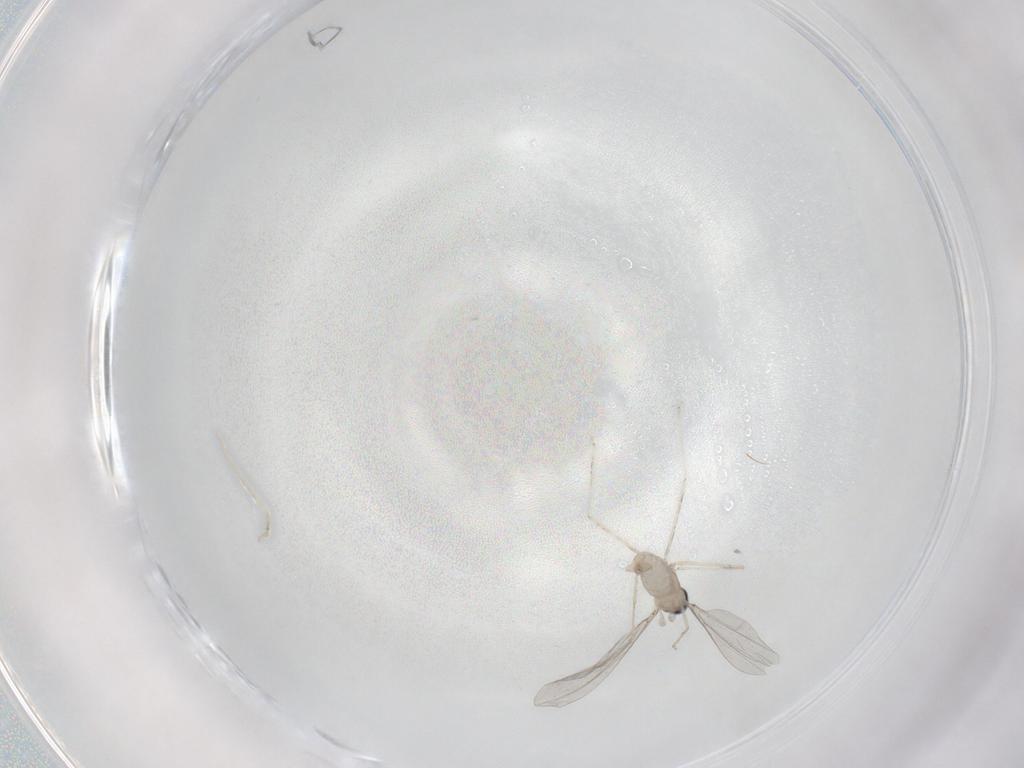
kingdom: Animalia
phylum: Arthropoda
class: Insecta
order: Diptera
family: Cecidomyiidae
